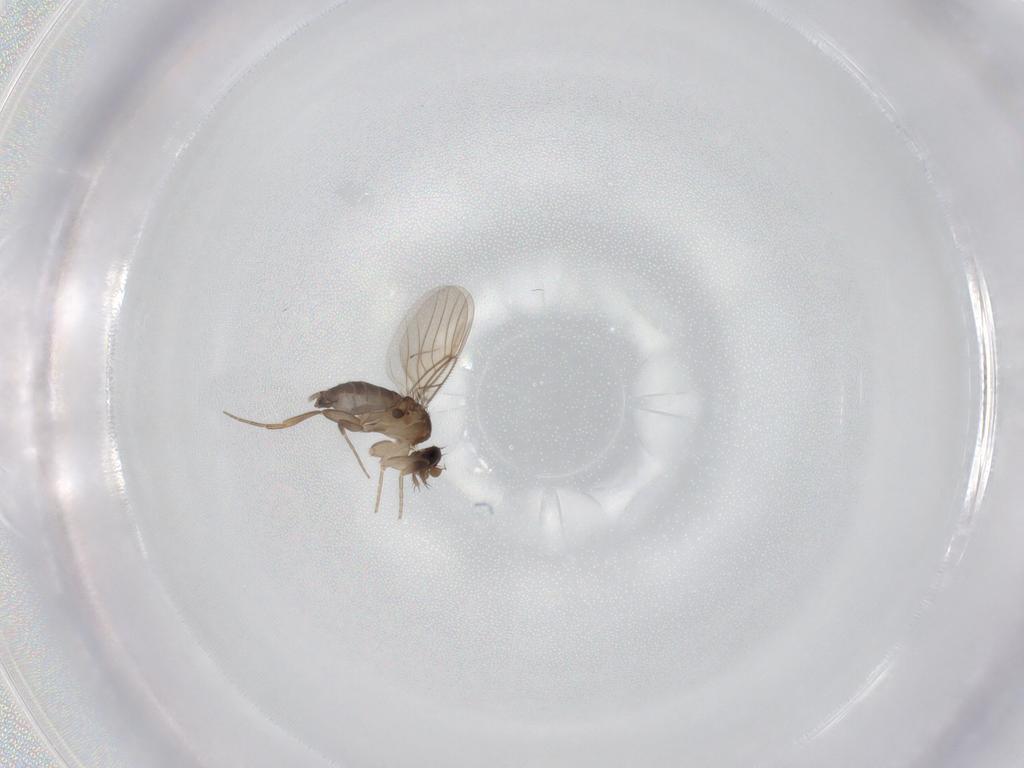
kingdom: Animalia
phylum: Arthropoda
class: Insecta
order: Diptera
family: Phoridae
